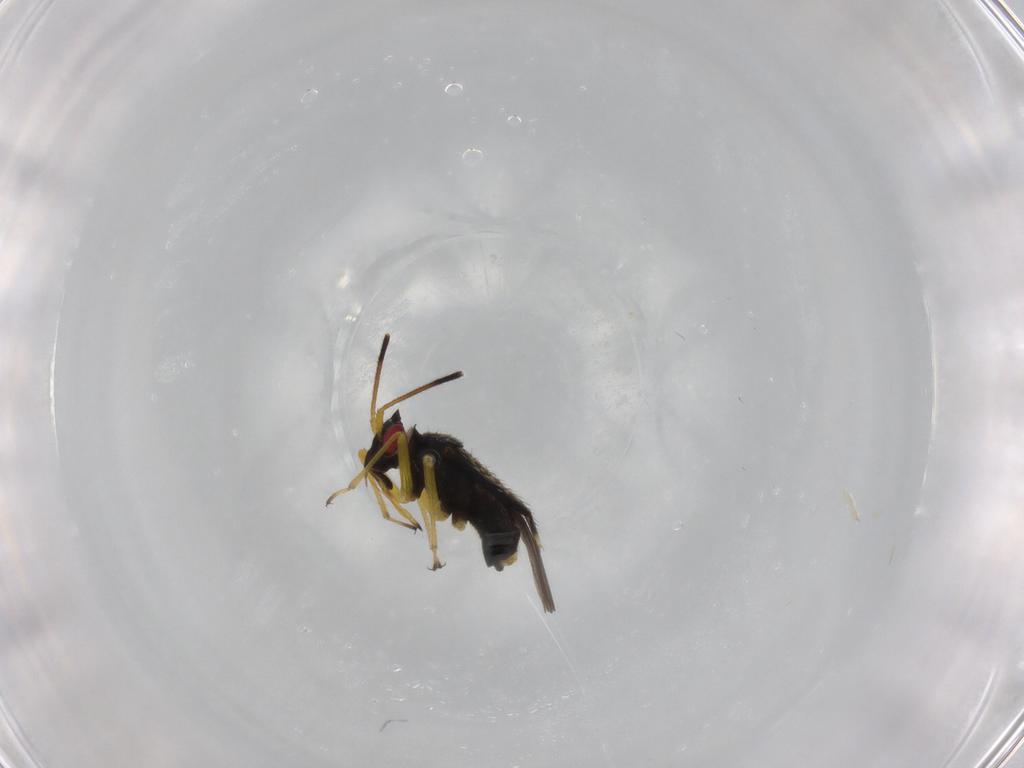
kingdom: Animalia
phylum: Arthropoda
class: Insecta
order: Hemiptera
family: Miridae
